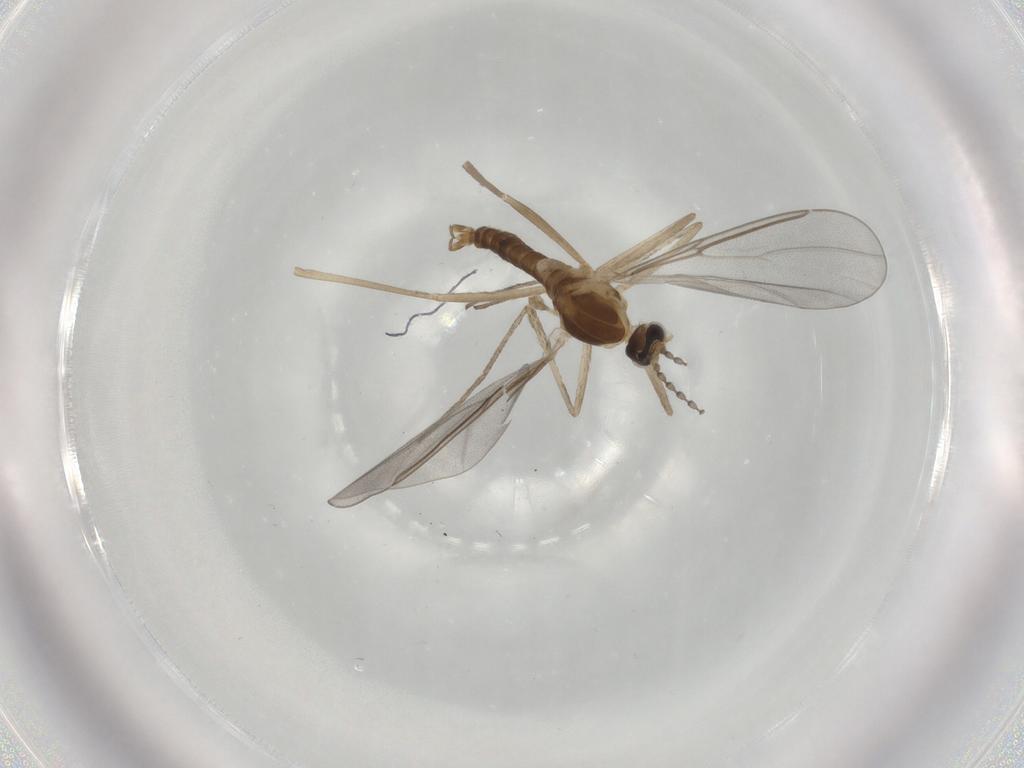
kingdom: Animalia
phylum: Arthropoda
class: Insecta
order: Diptera
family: Cecidomyiidae
